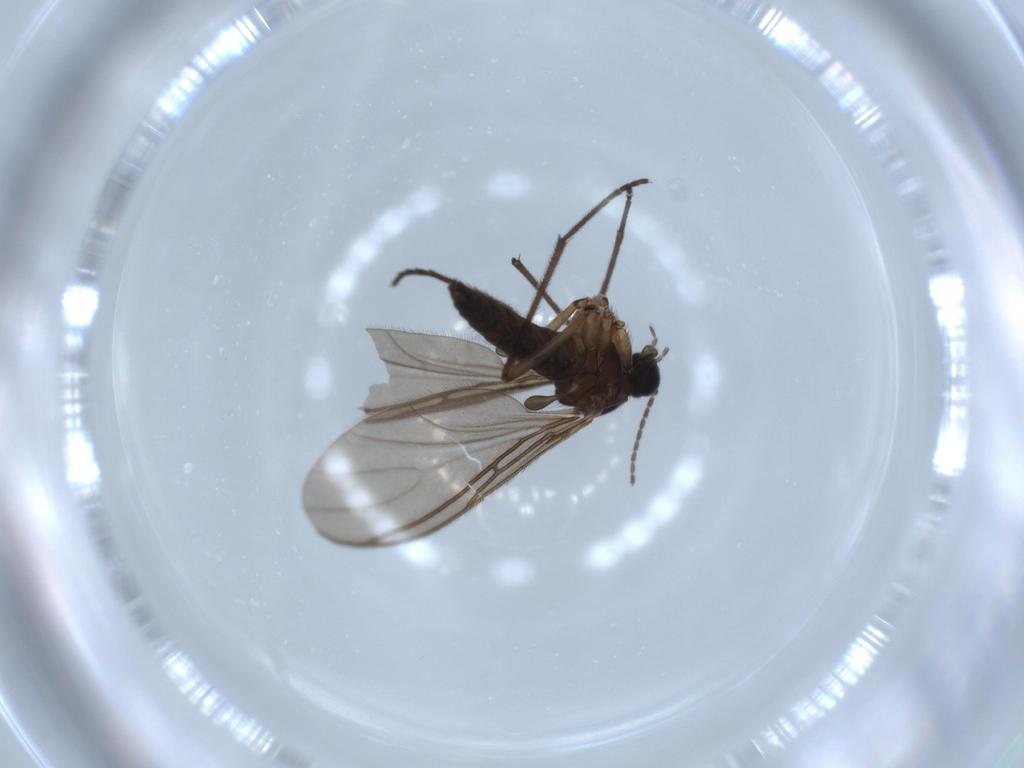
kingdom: Animalia
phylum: Arthropoda
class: Insecta
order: Diptera
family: Sciaridae
